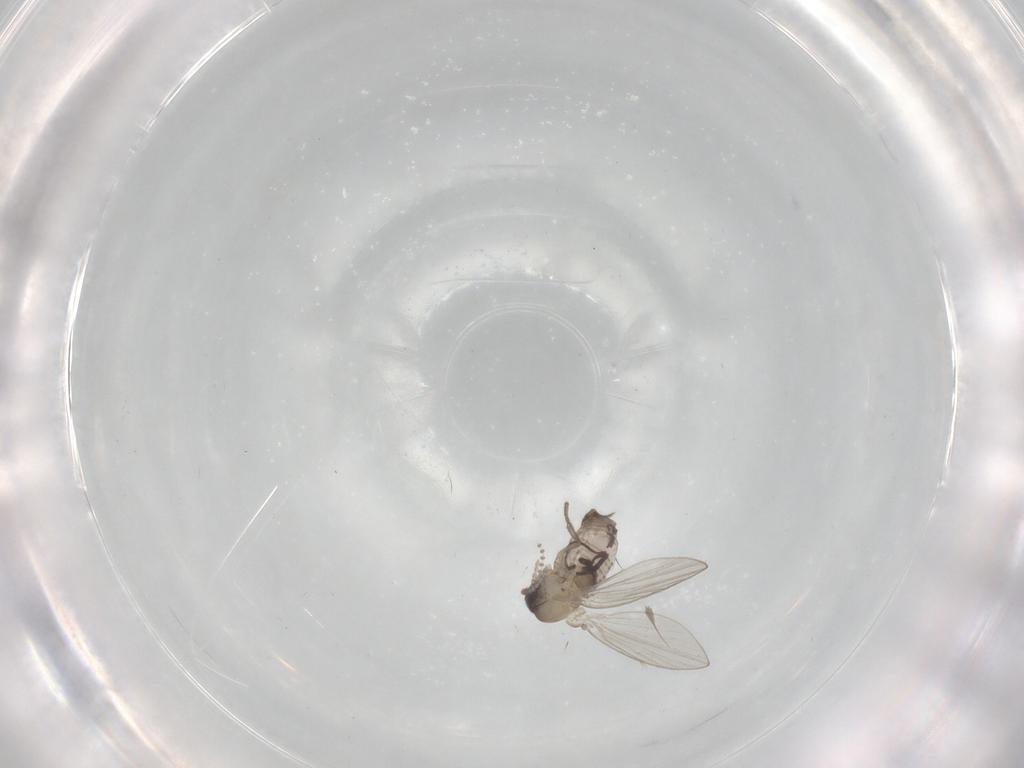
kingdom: Animalia
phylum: Arthropoda
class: Insecta
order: Diptera
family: Psychodidae
